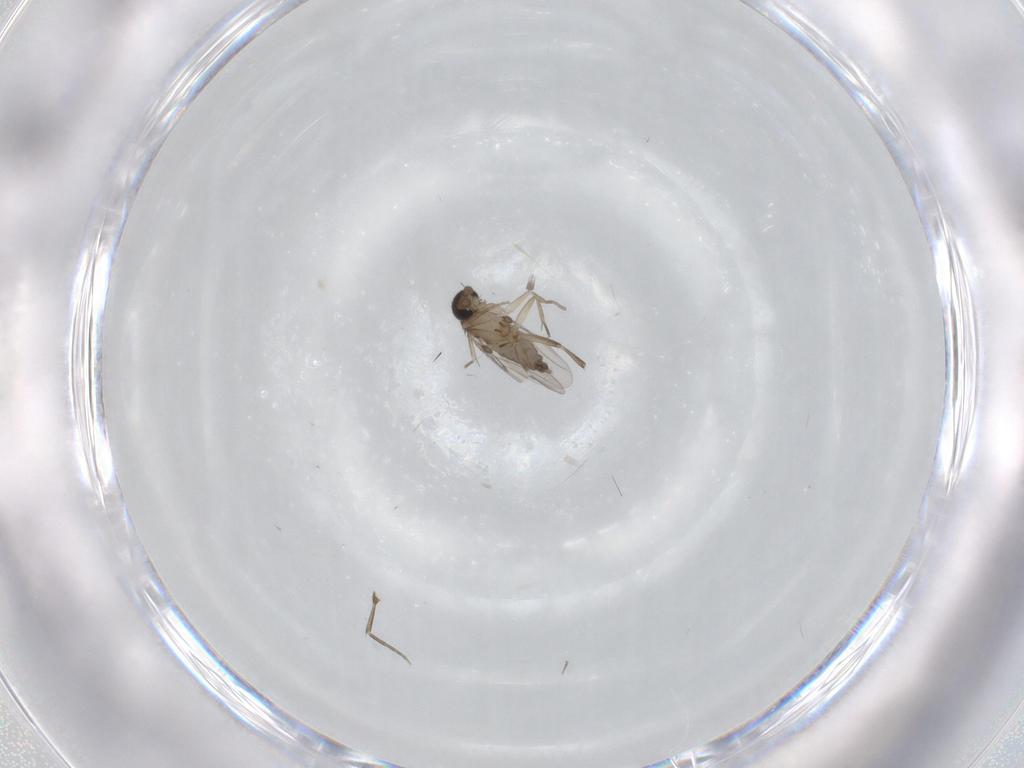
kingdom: Animalia
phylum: Arthropoda
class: Insecta
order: Diptera
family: Phoridae
